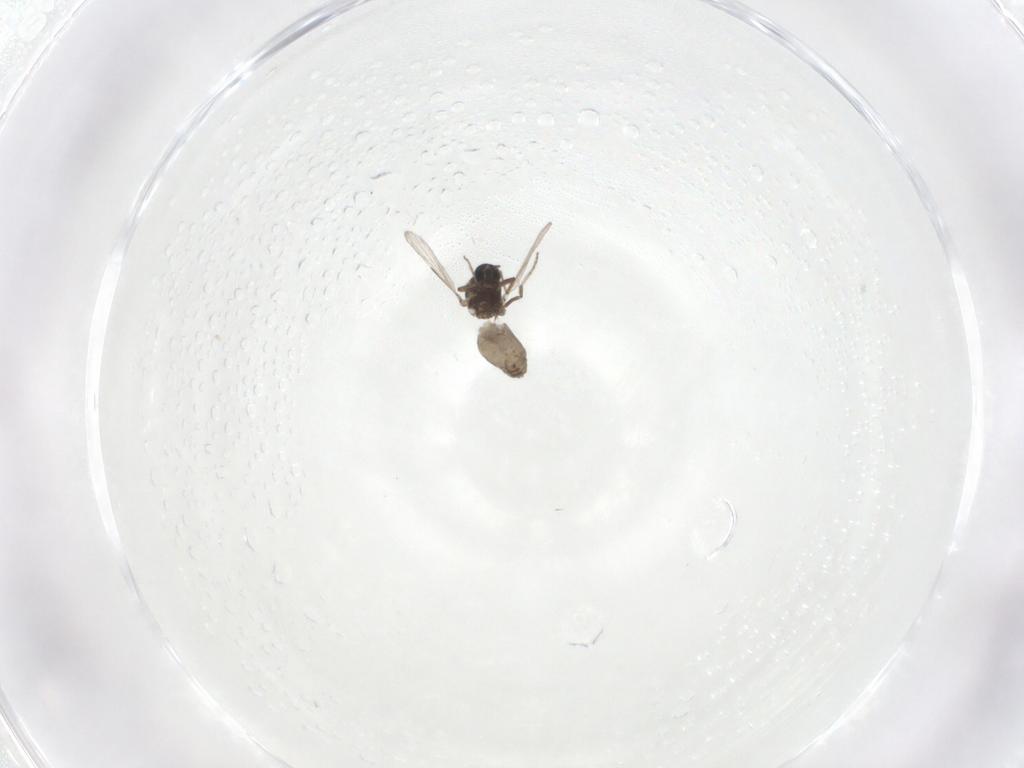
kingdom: Animalia
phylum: Arthropoda
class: Insecta
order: Diptera
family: Ceratopogonidae
